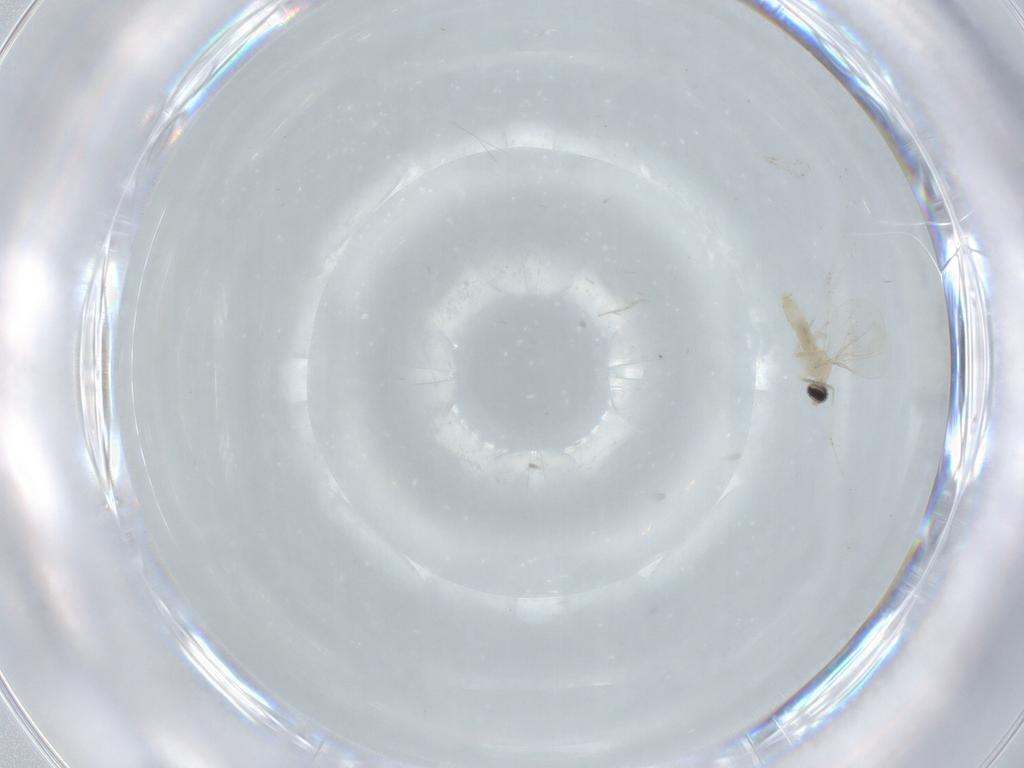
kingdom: Animalia
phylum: Arthropoda
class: Insecta
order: Diptera
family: Cecidomyiidae
